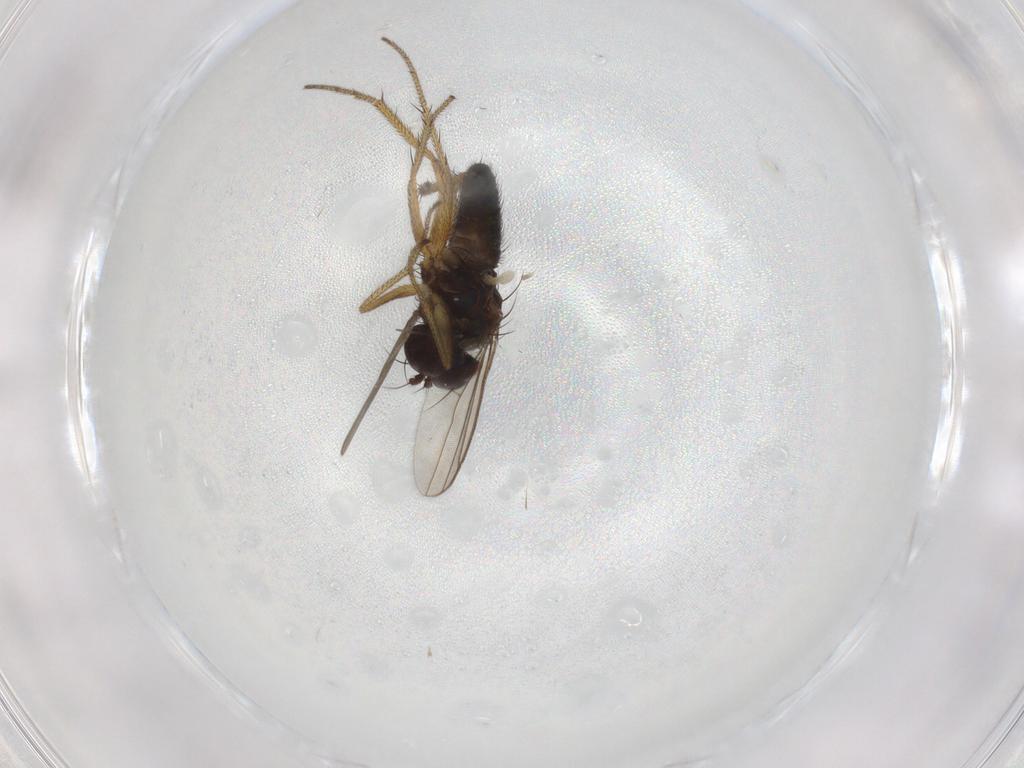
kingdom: Animalia
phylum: Arthropoda
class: Insecta
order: Diptera
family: Dolichopodidae
